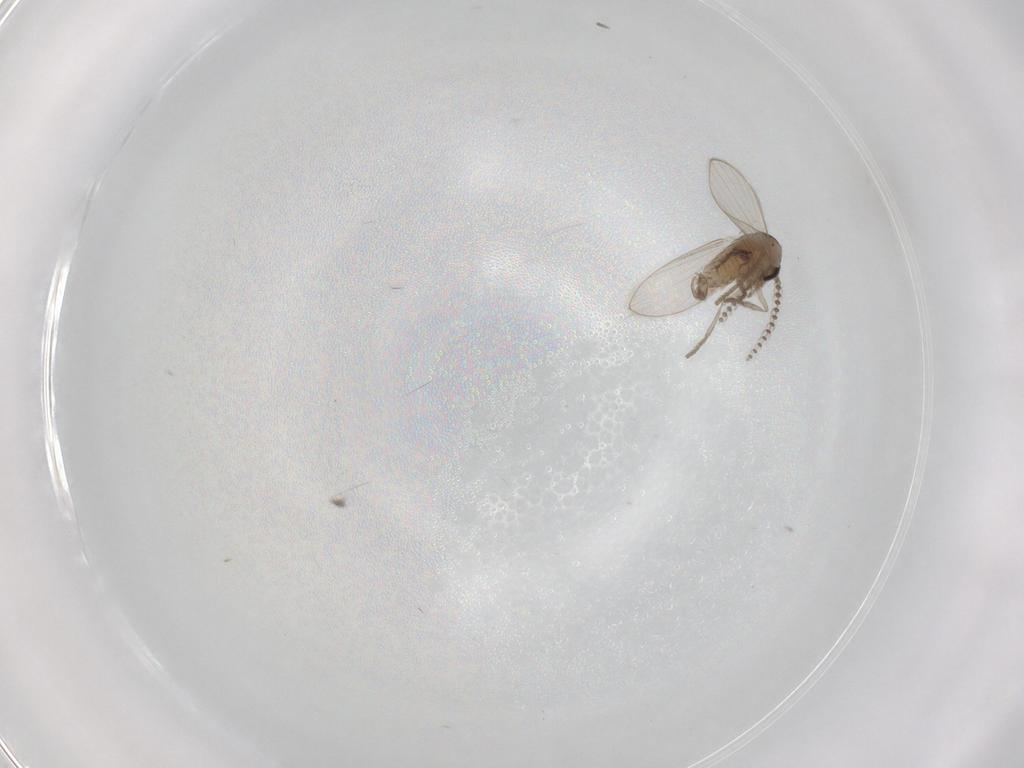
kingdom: Animalia
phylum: Arthropoda
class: Insecta
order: Diptera
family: Psychodidae
